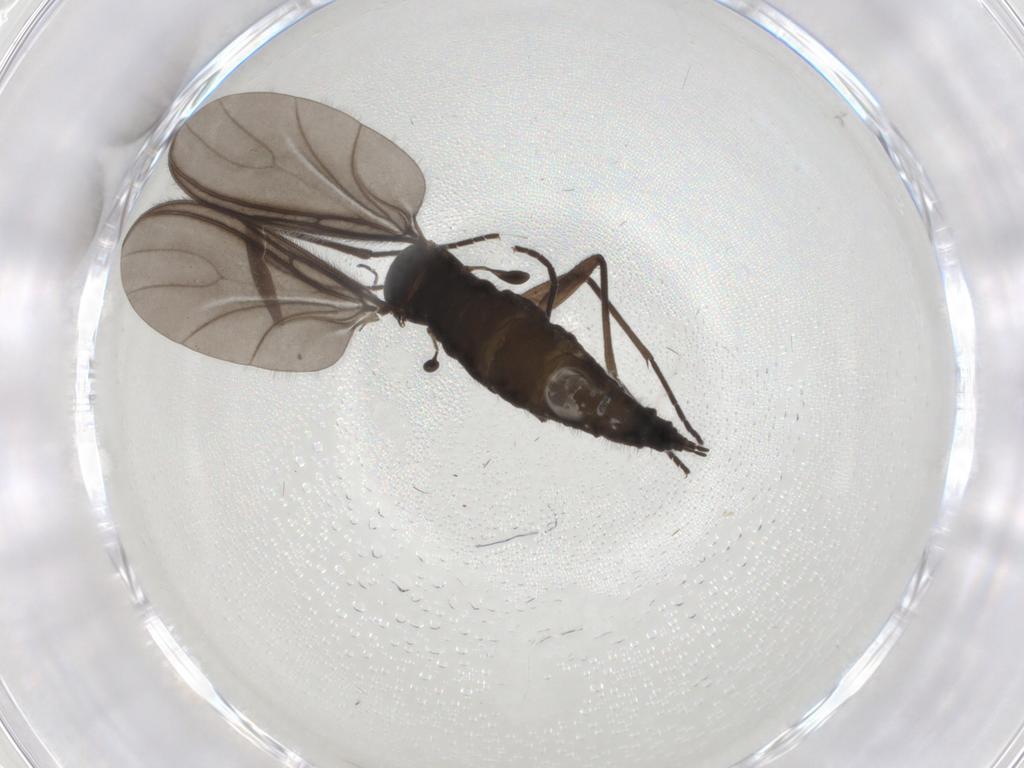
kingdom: Animalia
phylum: Arthropoda
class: Insecta
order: Diptera
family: Sciaridae
